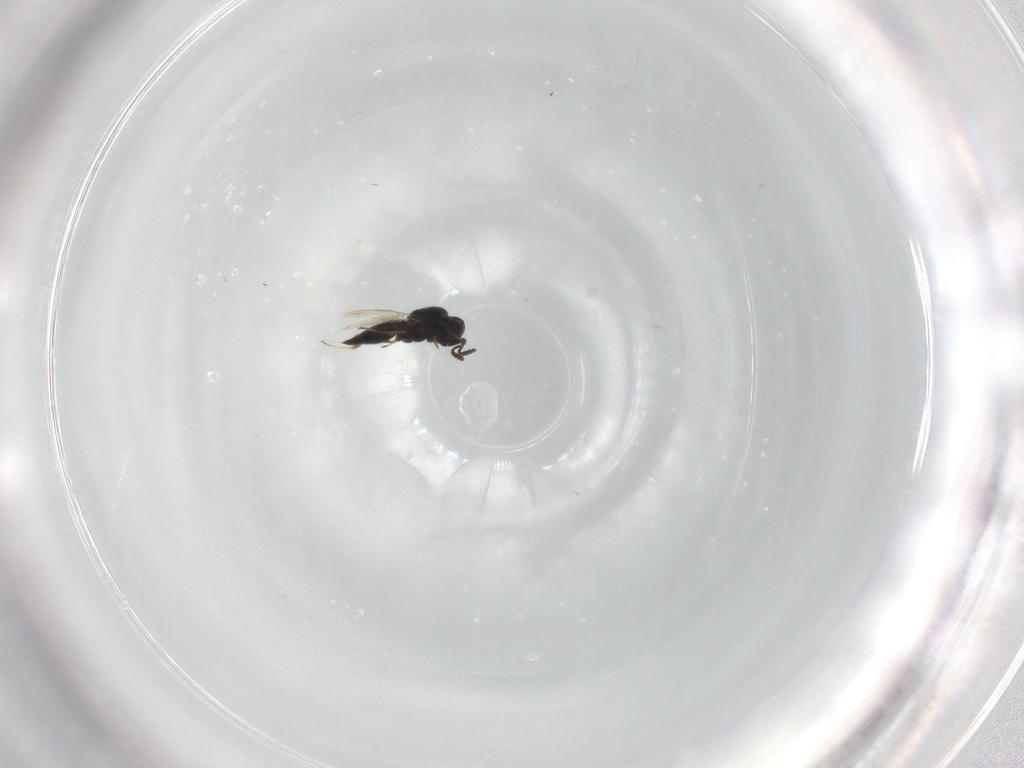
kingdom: Animalia
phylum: Arthropoda
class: Insecta
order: Hymenoptera
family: Scelionidae
